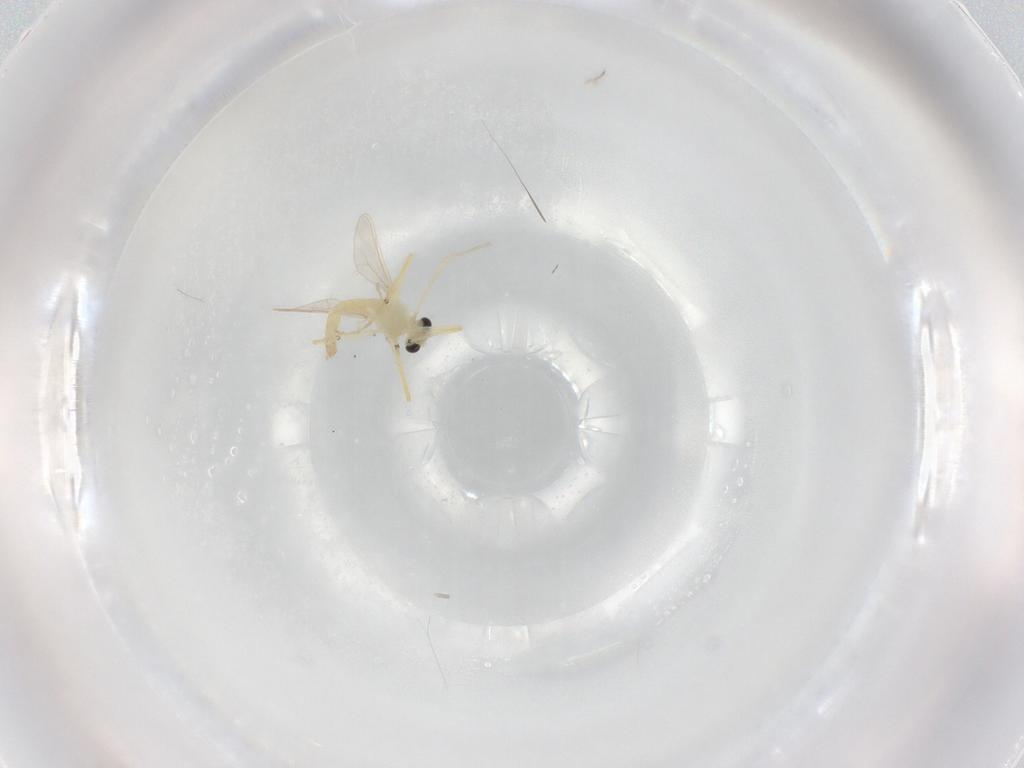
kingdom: Animalia
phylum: Arthropoda
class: Insecta
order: Diptera
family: Chironomidae
